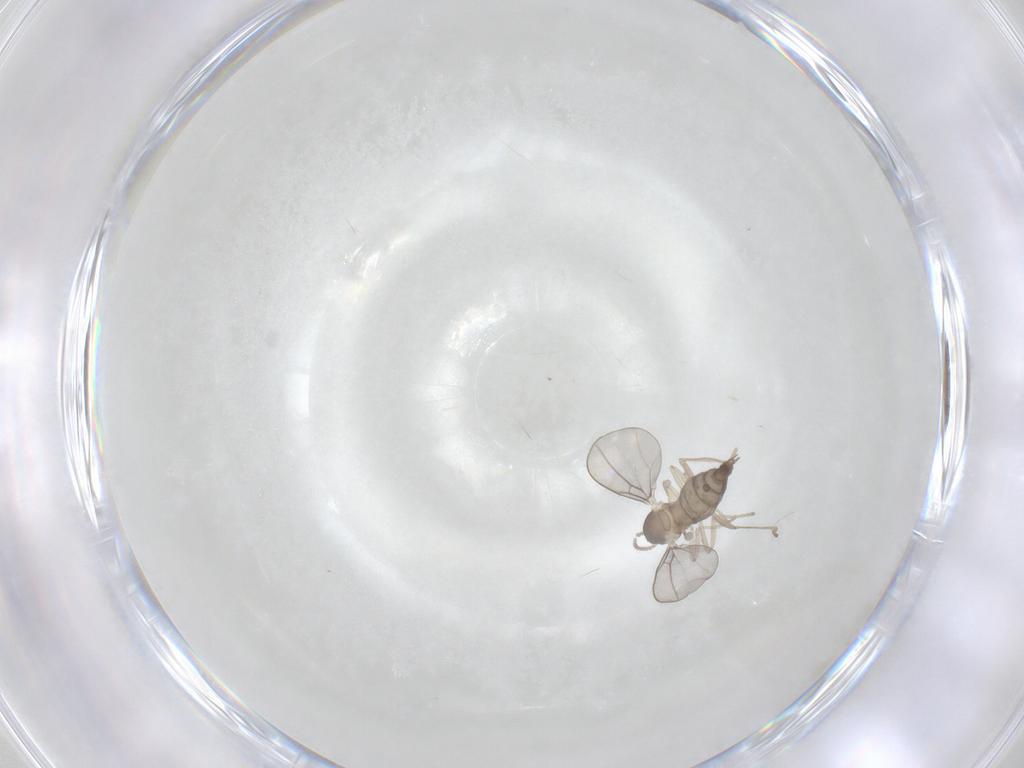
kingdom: Animalia
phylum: Arthropoda
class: Insecta
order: Diptera
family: Cecidomyiidae
